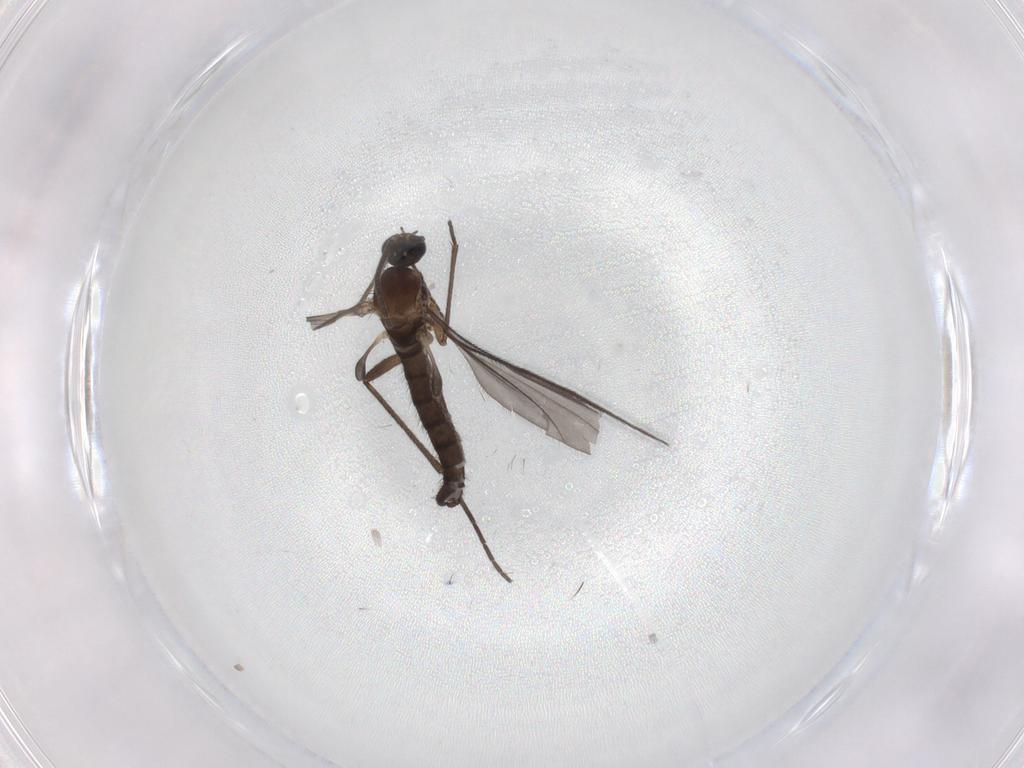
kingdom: Animalia
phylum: Arthropoda
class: Insecta
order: Diptera
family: Sciaridae
